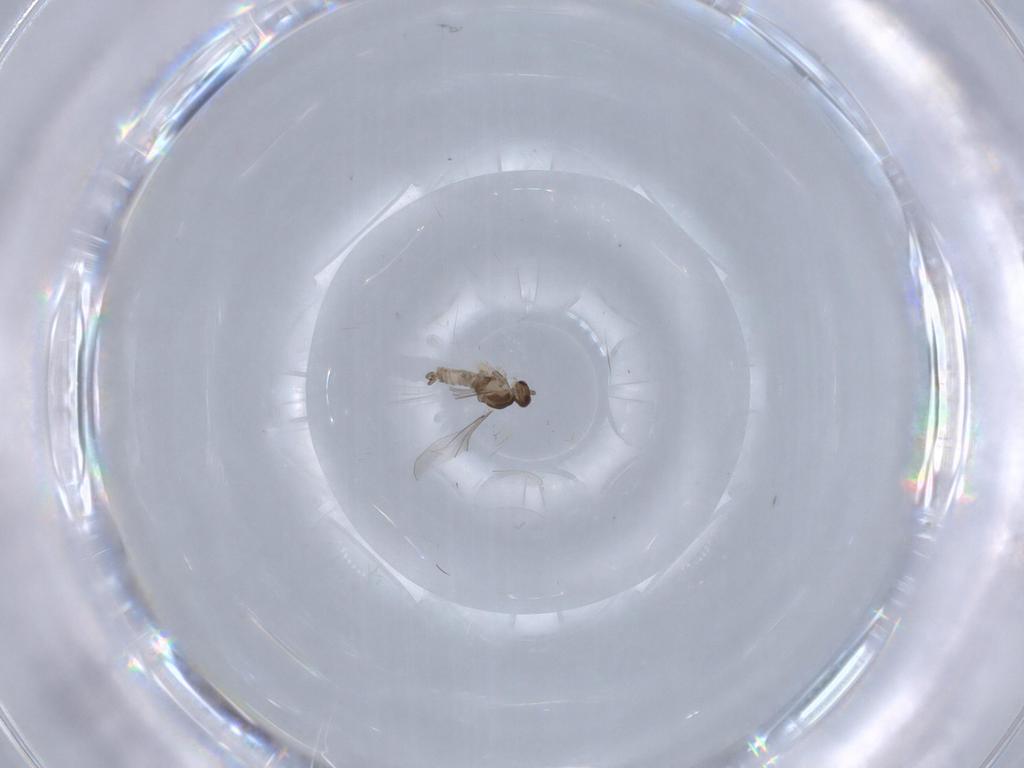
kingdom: Animalia
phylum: Arthropoda
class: Insecta
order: Diptera
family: Cecidomyiidae
